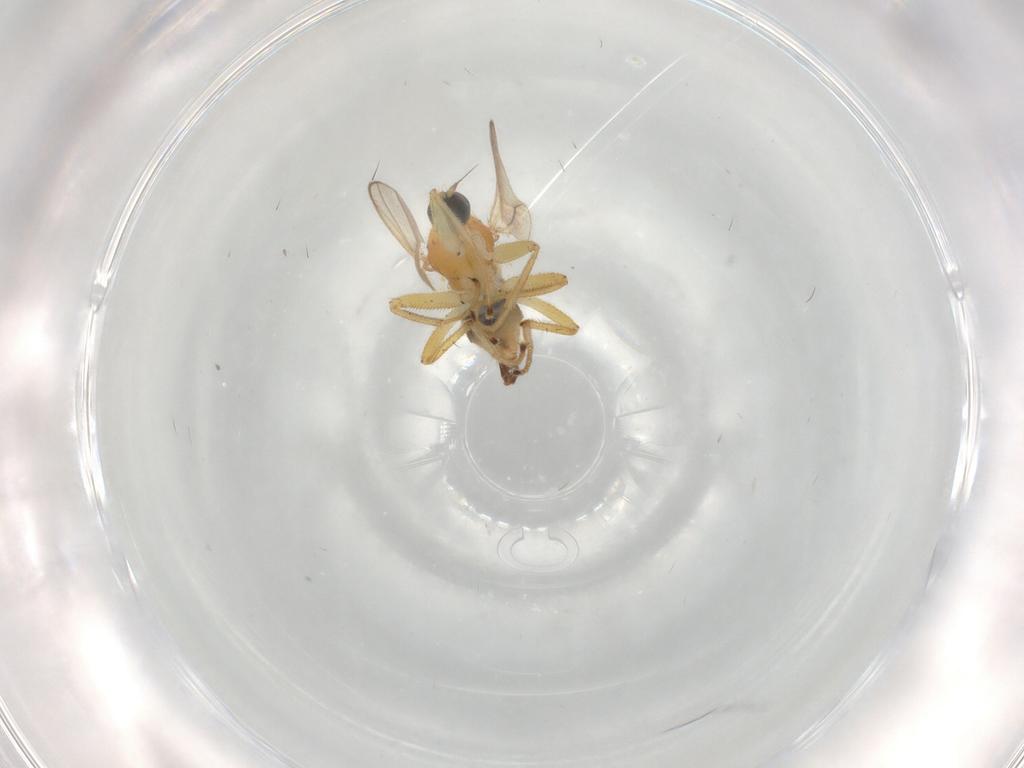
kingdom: Animalia
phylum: Arthropoda
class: Insecta
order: Diptera
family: Hybotidae
